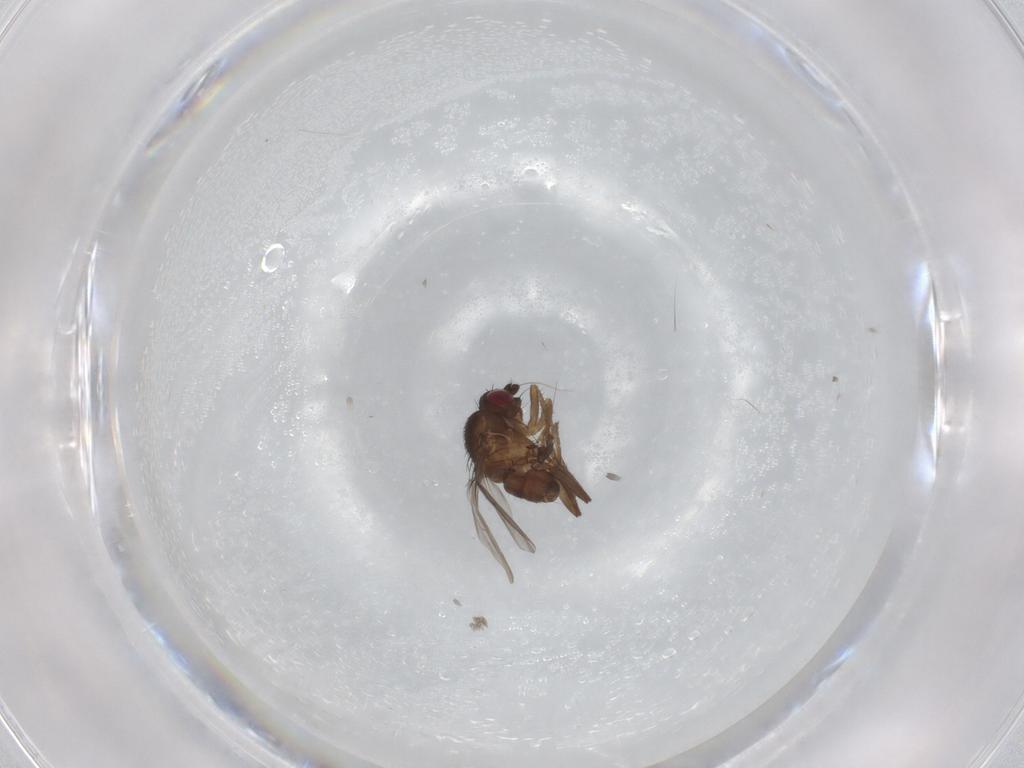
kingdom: Animalia
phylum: Arthropoda
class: Insecta
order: Diptera
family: Sphaeroceridae
